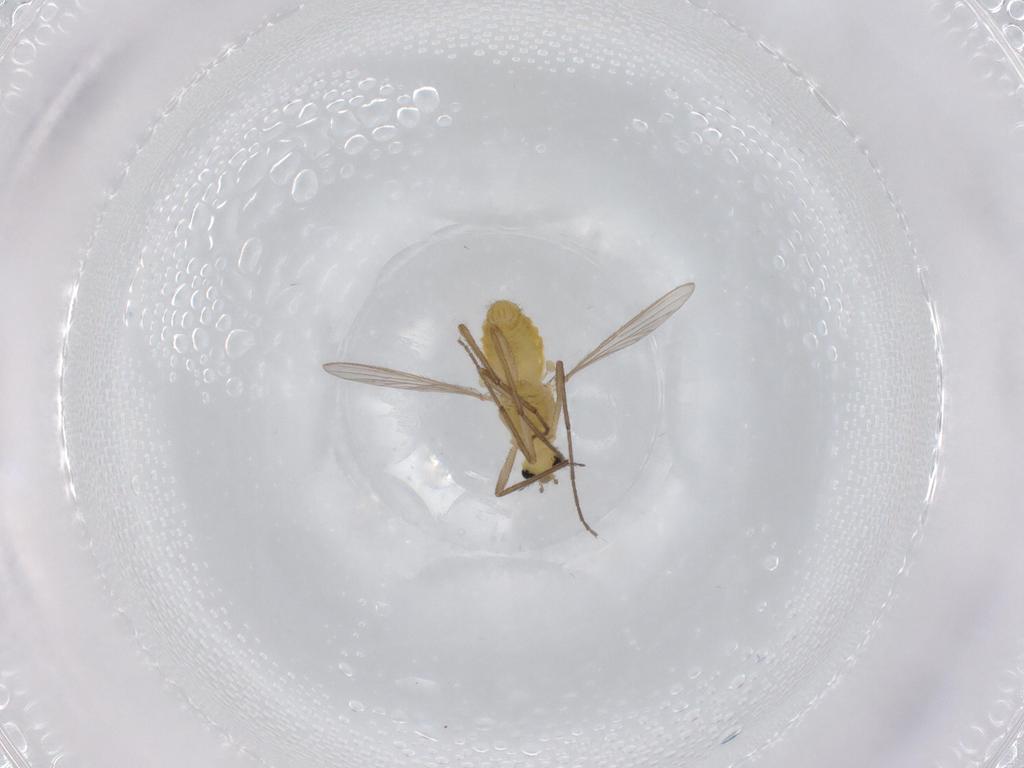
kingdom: Animalia
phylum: Arthropoda
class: Insecta
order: Diptera
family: Chironomidae
